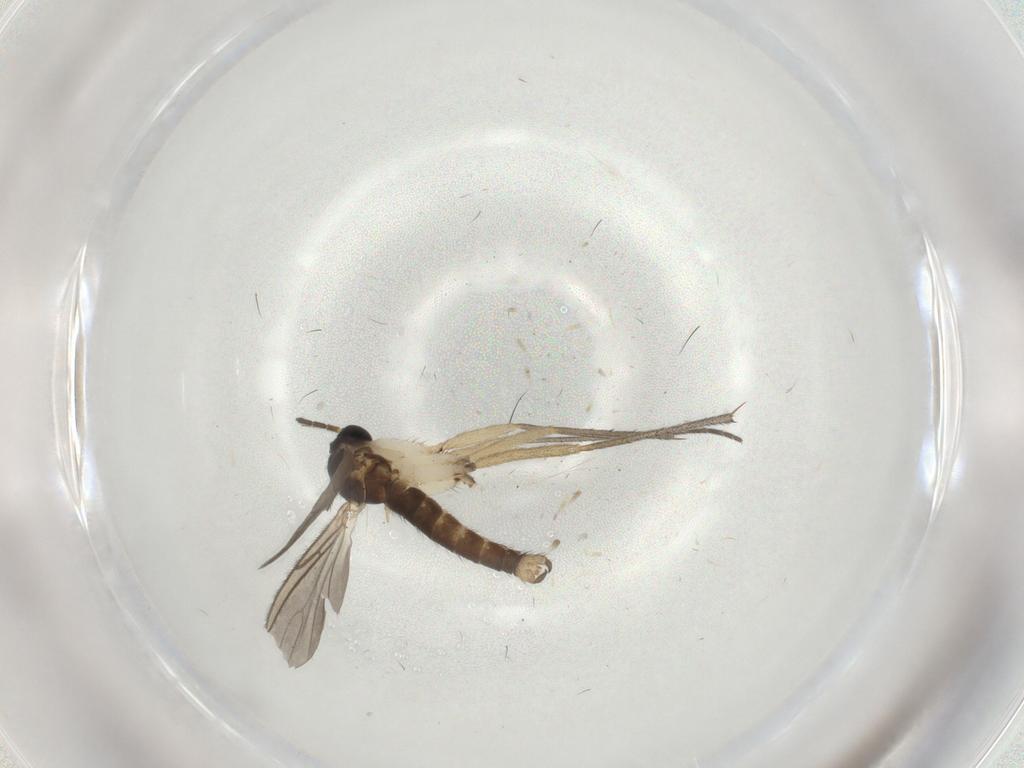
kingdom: Animalia
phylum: Arthropoda
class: Insecta
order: Diptera
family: Sciaridae
